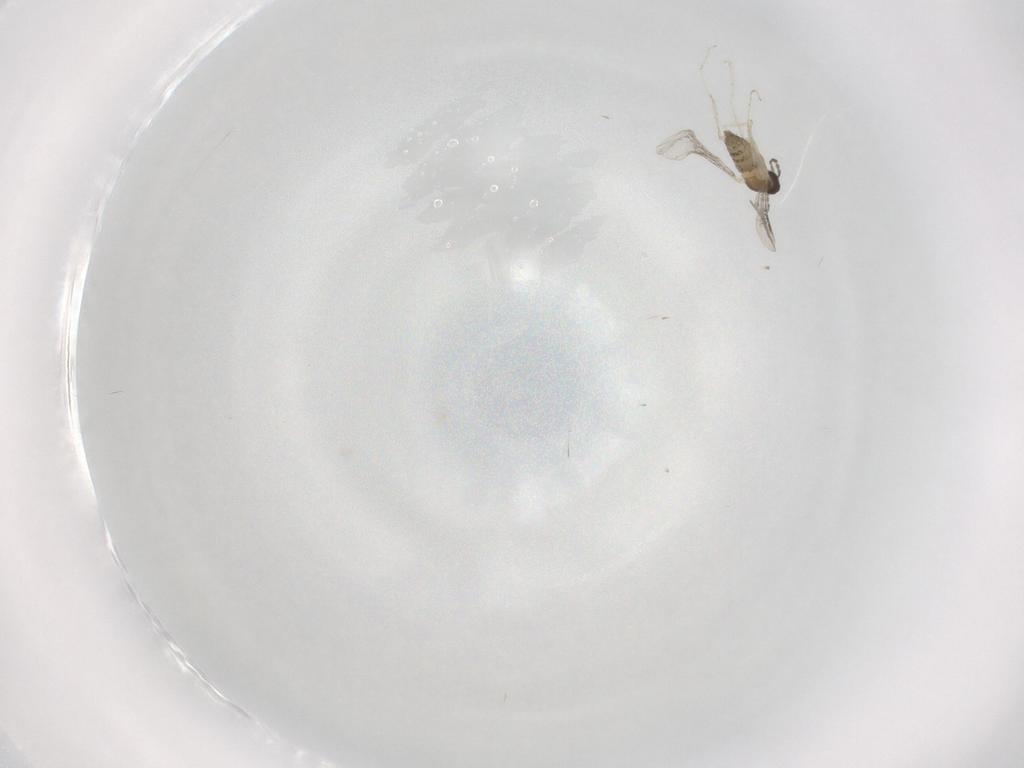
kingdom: Animalia
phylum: Arthropoda
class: Insecta
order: Diptera
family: Cecidomyiidae
